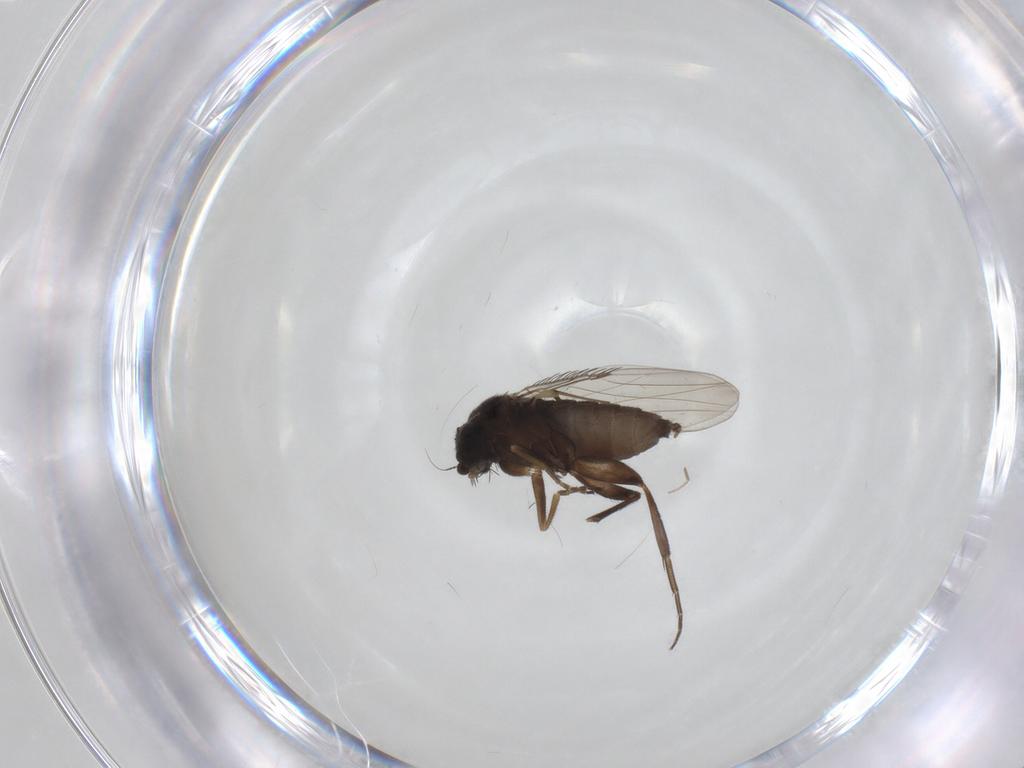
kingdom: Animalia
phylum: Arthropoda
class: Insecta
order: Diptera
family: Phoridae
